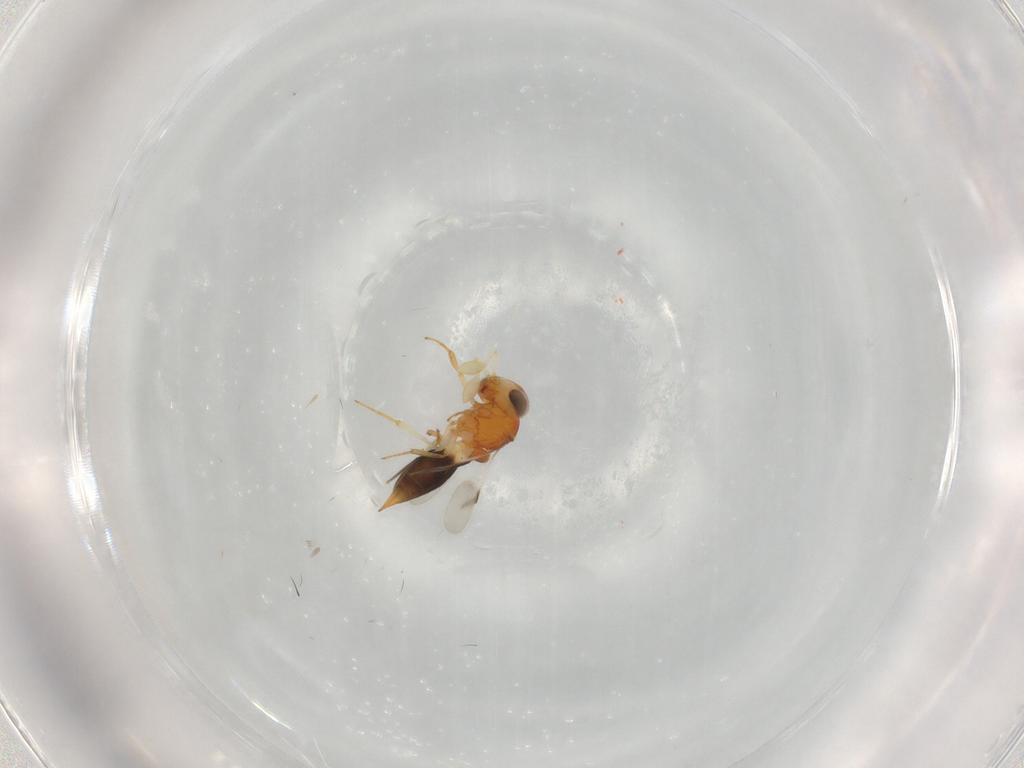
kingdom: Animalia
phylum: Arthropoda
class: Insecta
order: Hymenoptera
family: Scelionidae
